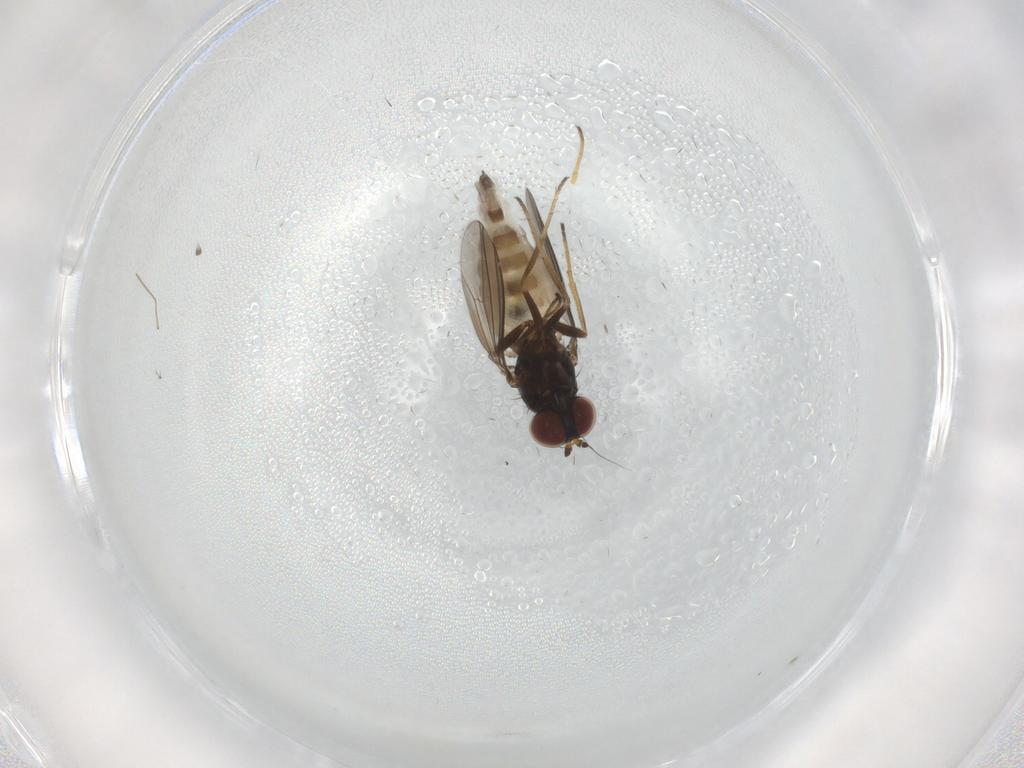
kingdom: Animalia
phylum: Arthropoda
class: Insecta
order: Diptera
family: Dolichopodidae
